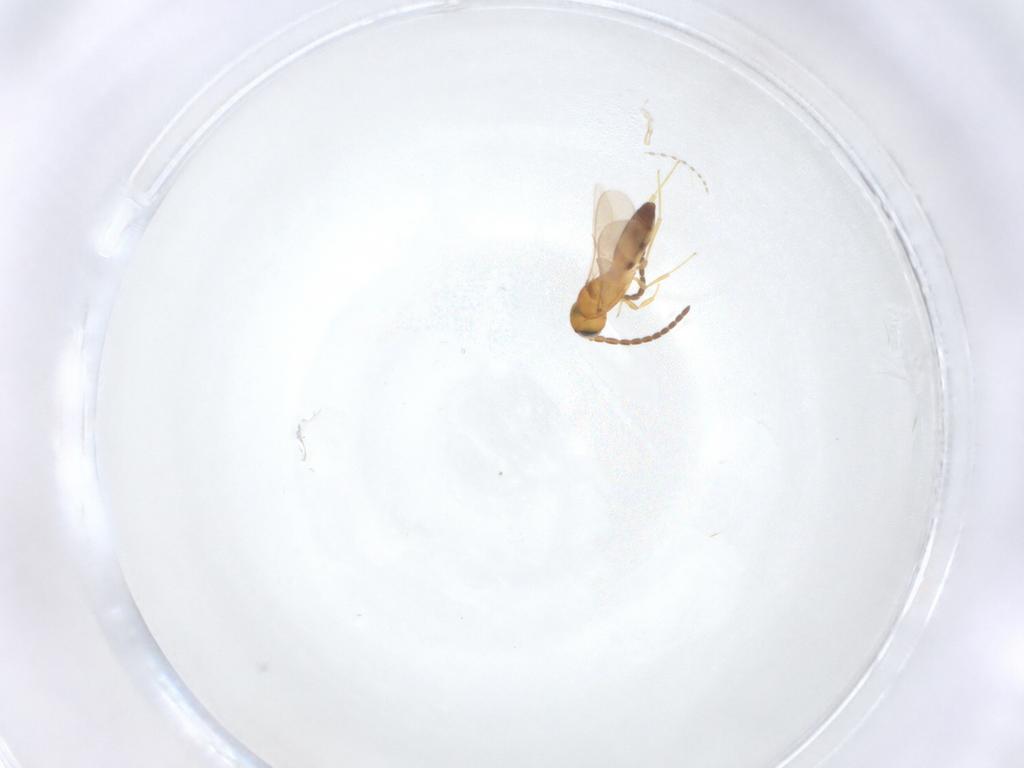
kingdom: Animalia
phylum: Arthropoda
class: Insecta
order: Hymenoptera
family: Scelionidae
